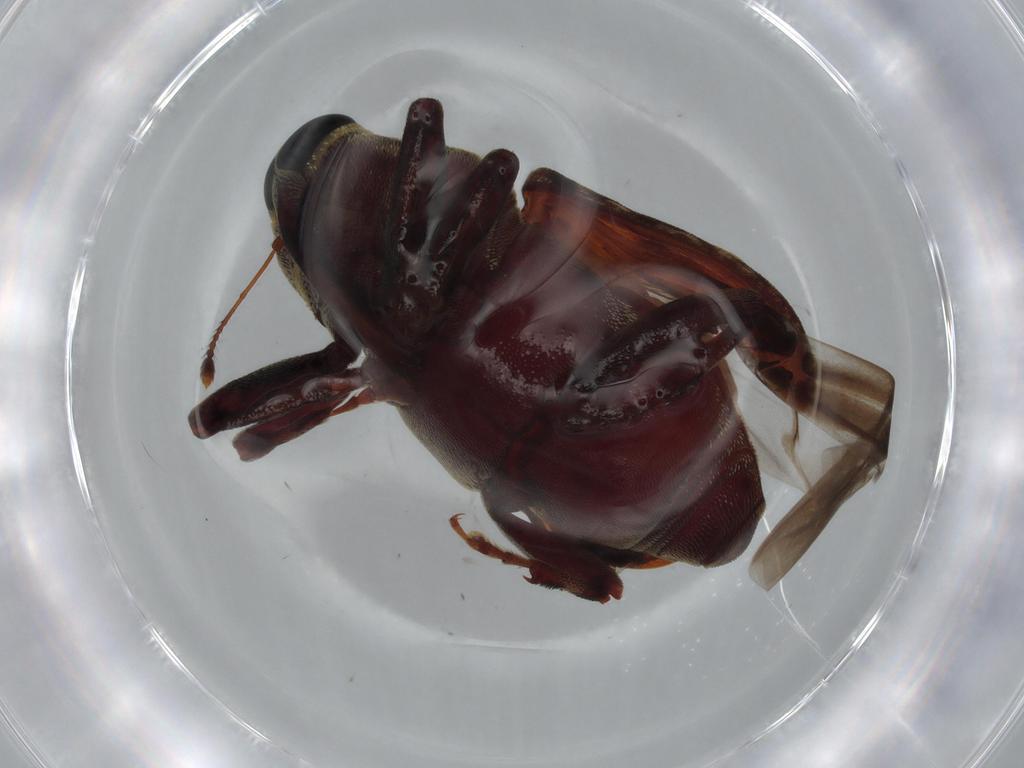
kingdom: Animalia
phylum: Arthropoda
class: Insecta
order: Coleoptera
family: Curculionidae
